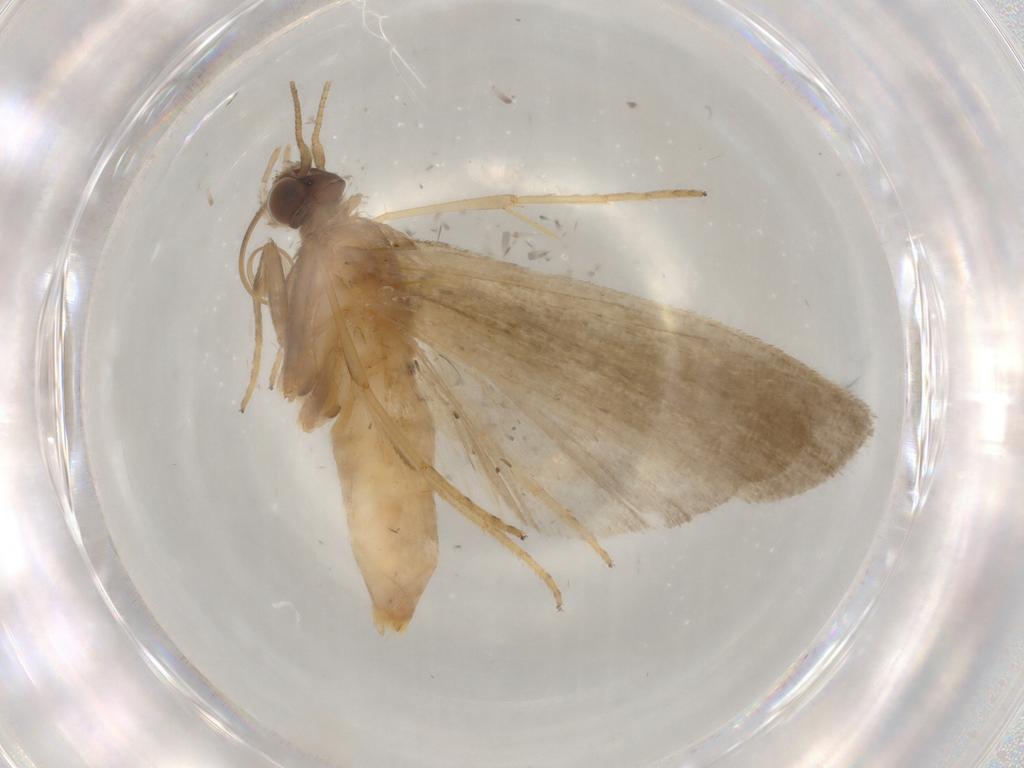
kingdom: Animalia
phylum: Arthropoda
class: Insecta
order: Lepidoptera
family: Noctuidae
